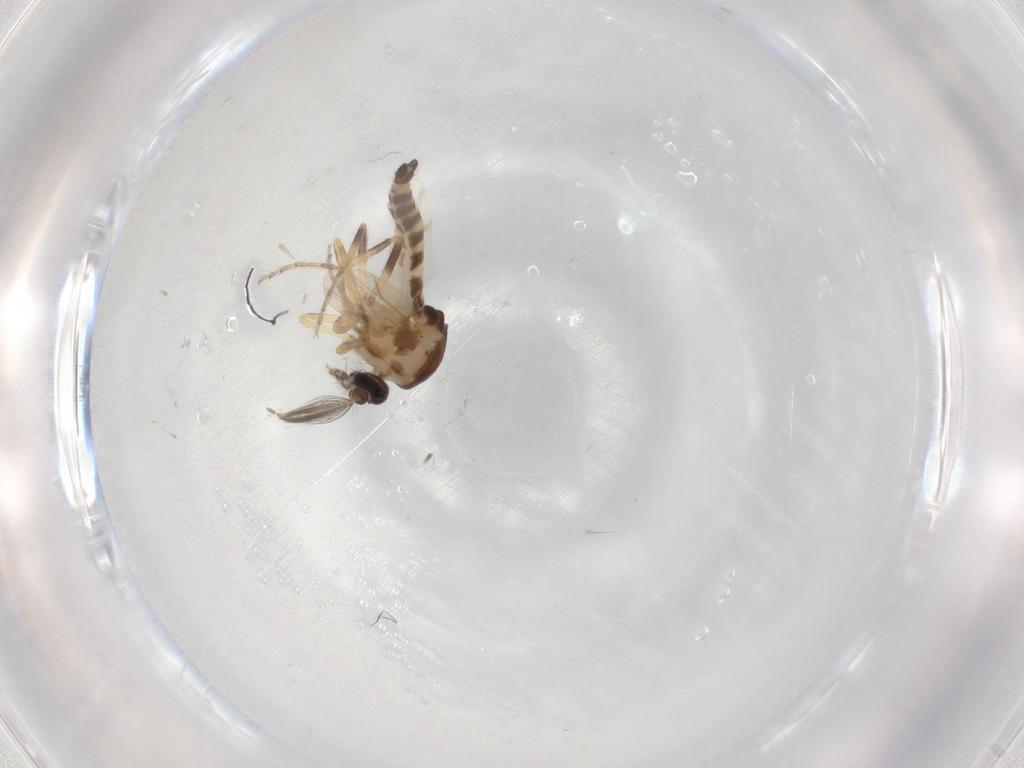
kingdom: Animalia
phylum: Arthropoda
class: Insecta
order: Diptera
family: Ceratopogonidae
